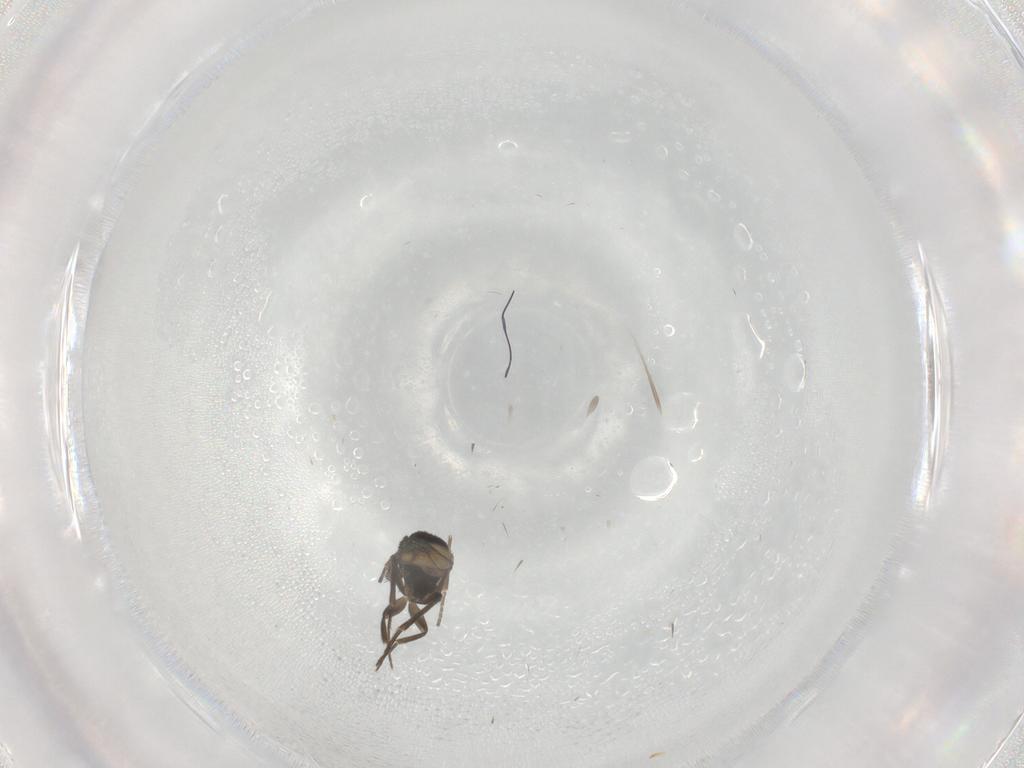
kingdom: Animalia
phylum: Arthropoda
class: Insecta
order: Diptera
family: Phoridae
